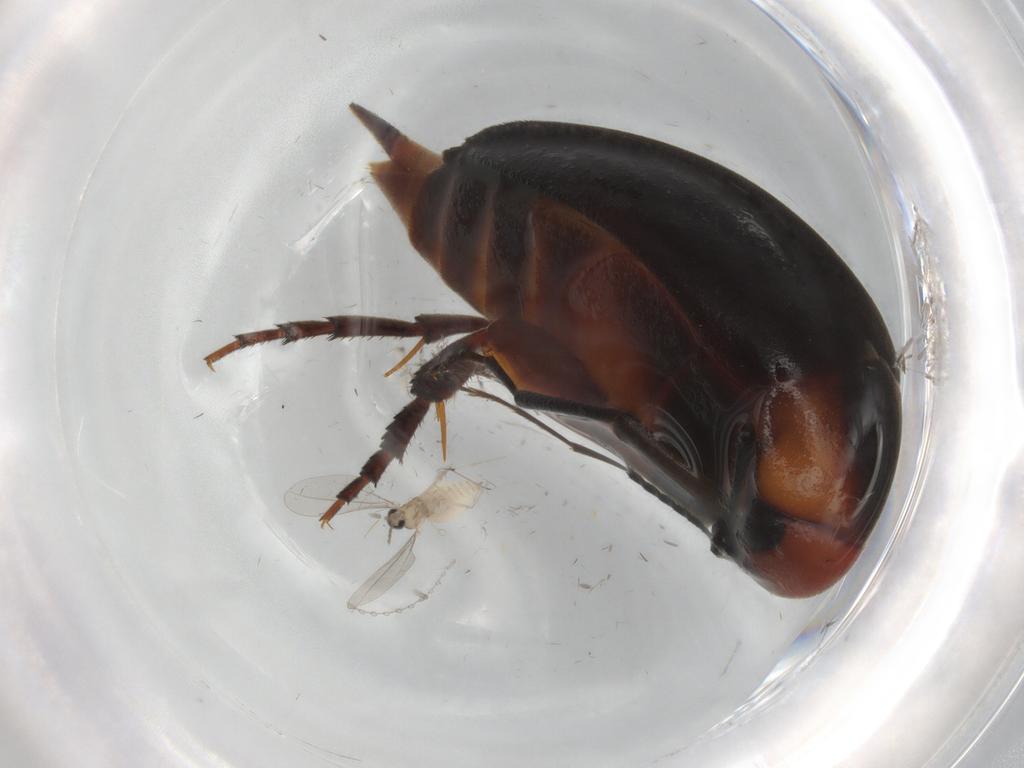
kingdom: Animalia
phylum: Arthropoda
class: Insecta
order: Coleoptera
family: Mordellidae
